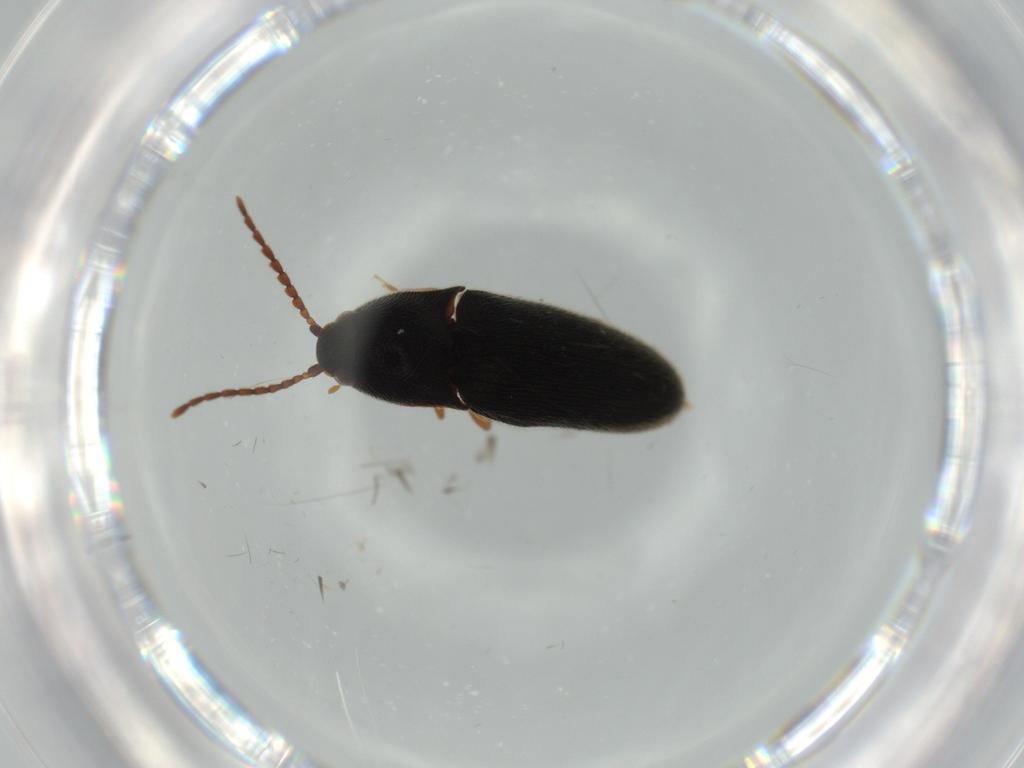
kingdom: Animalia
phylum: Arthropoda
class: Insecta
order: Coleoptera
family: Elateridae
